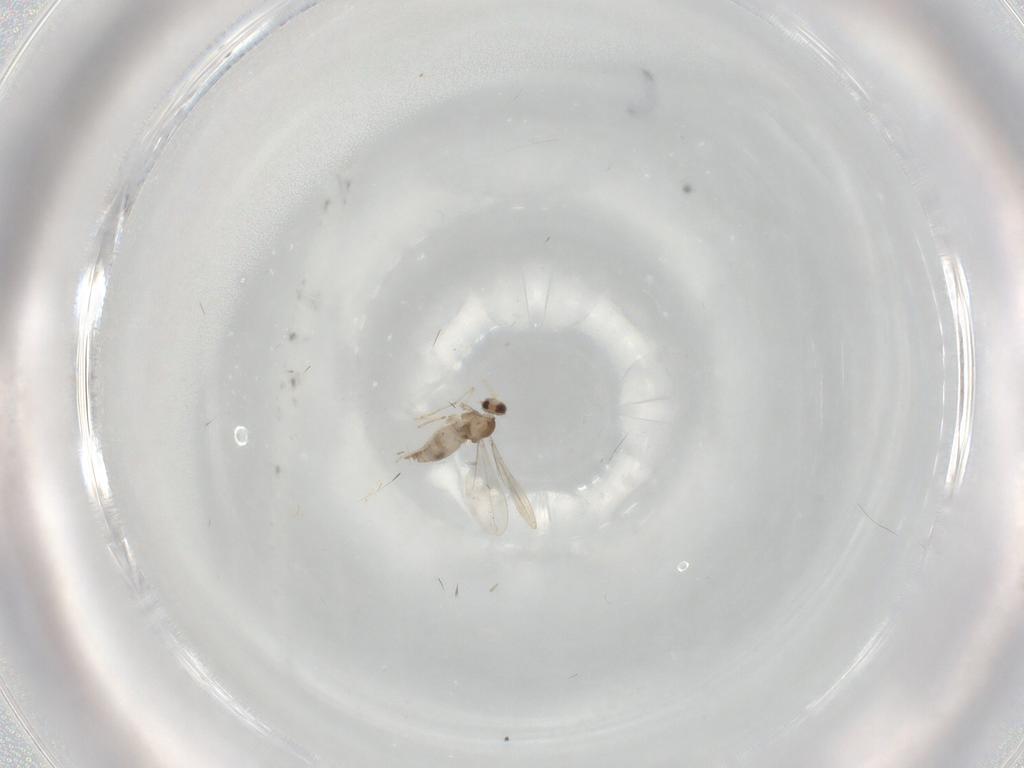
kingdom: Animalia
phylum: Arthropoda
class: Insecta
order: Diptera
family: Cecidomyiidae
